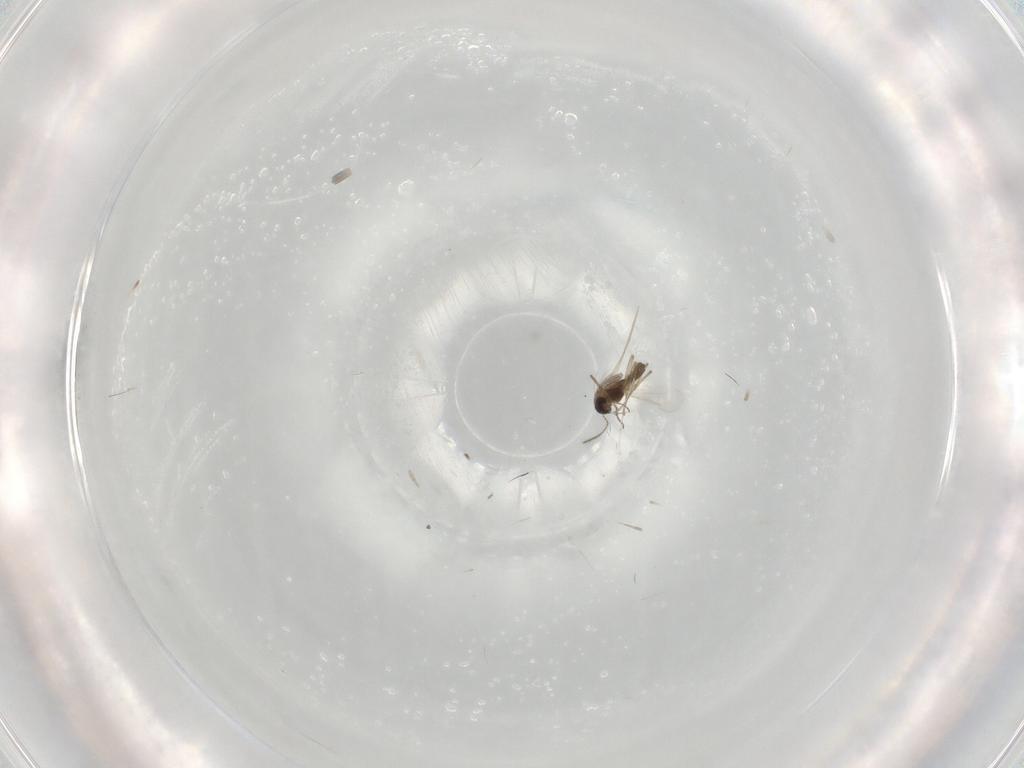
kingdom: Animalia
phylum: Arthropoda
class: Insecta
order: Diptera
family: Chironomidae
